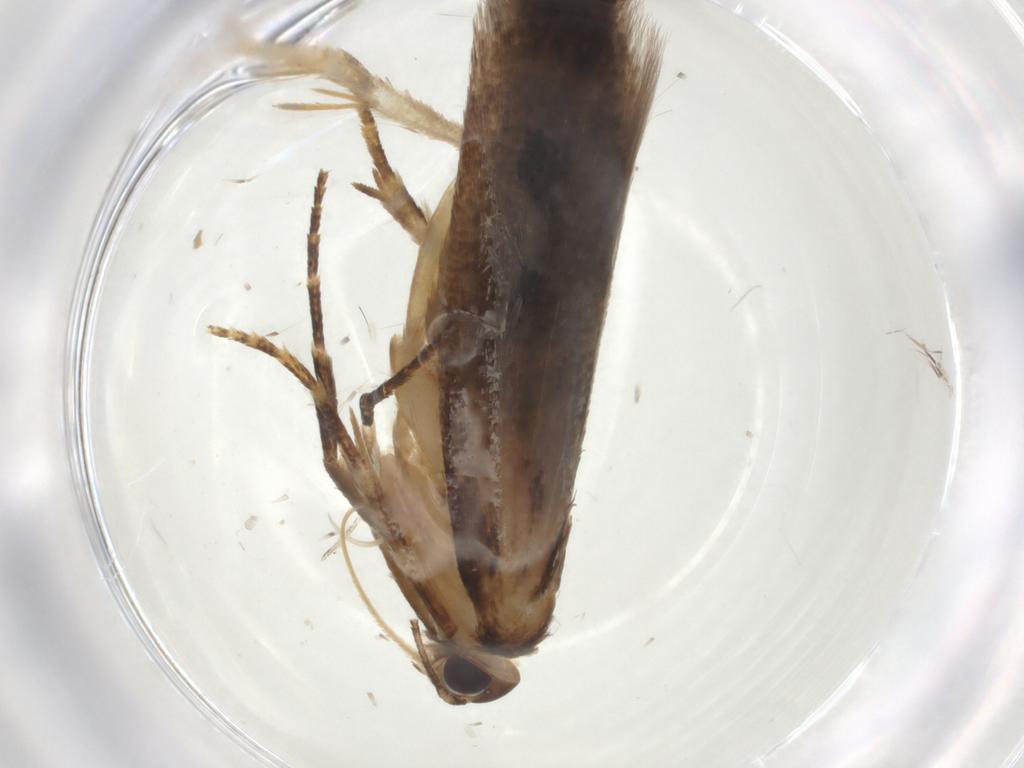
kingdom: Animalia
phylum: Arthropoda
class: Insecta
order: Lepidoptera
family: Gelechiidae
